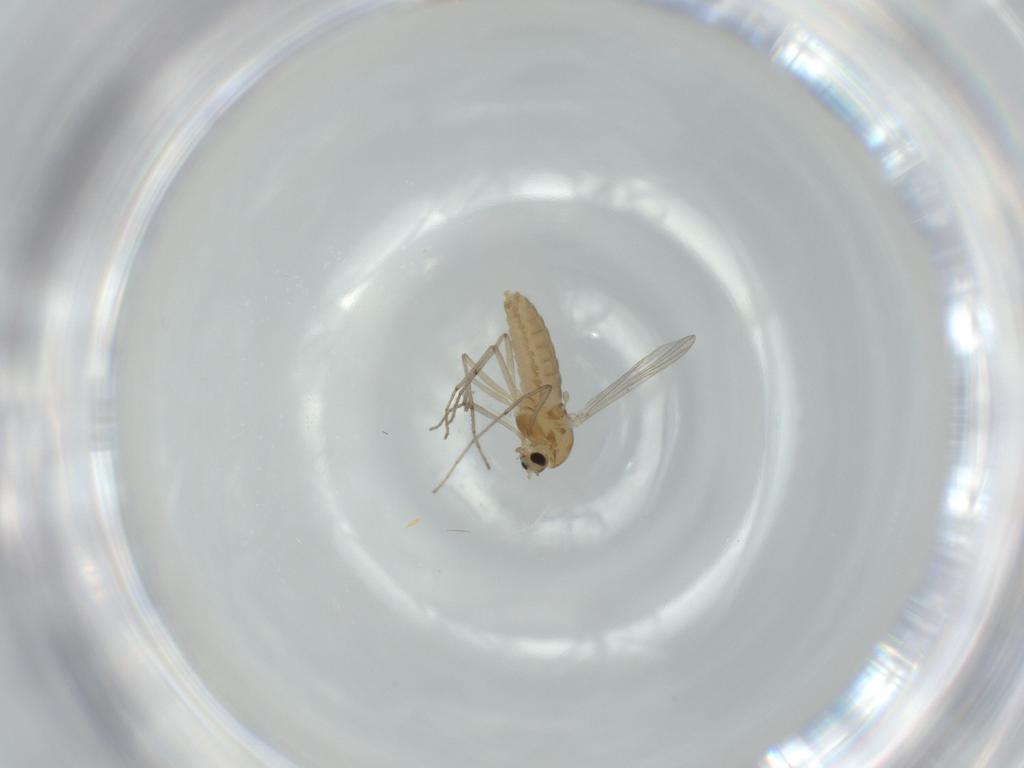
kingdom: Animalia
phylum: Arthropoda
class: Insecta
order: Diptera
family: Chironomidae
